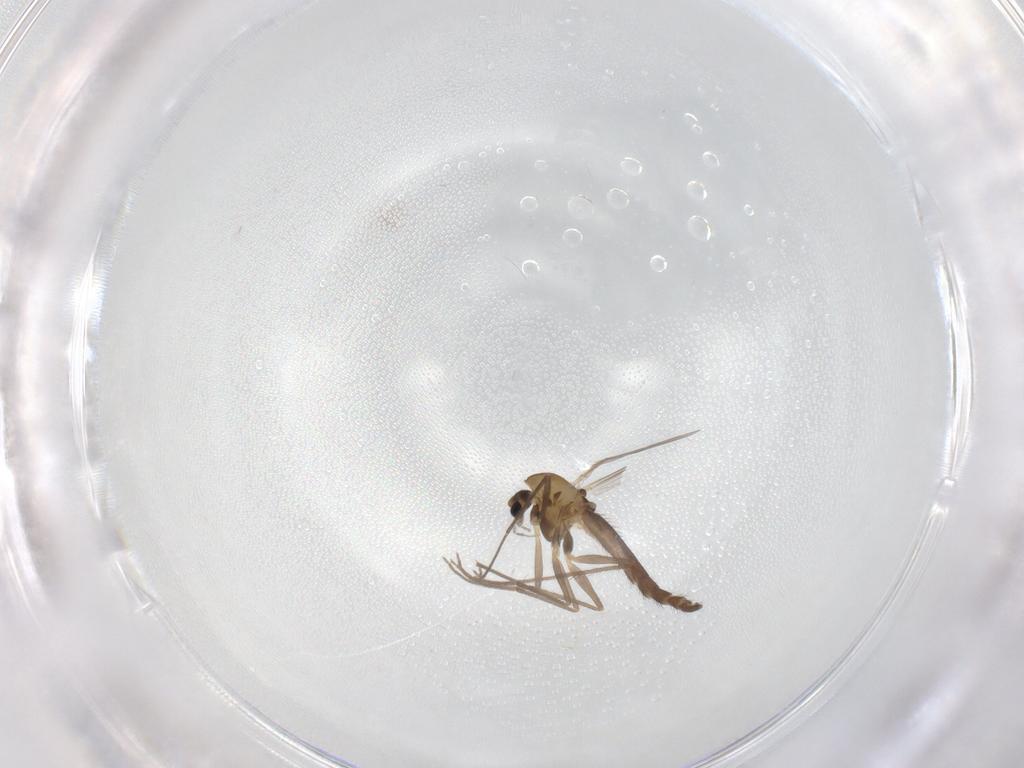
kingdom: Animalia
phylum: Arthropoda
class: Insecta
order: Diptera
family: Chironomidae
